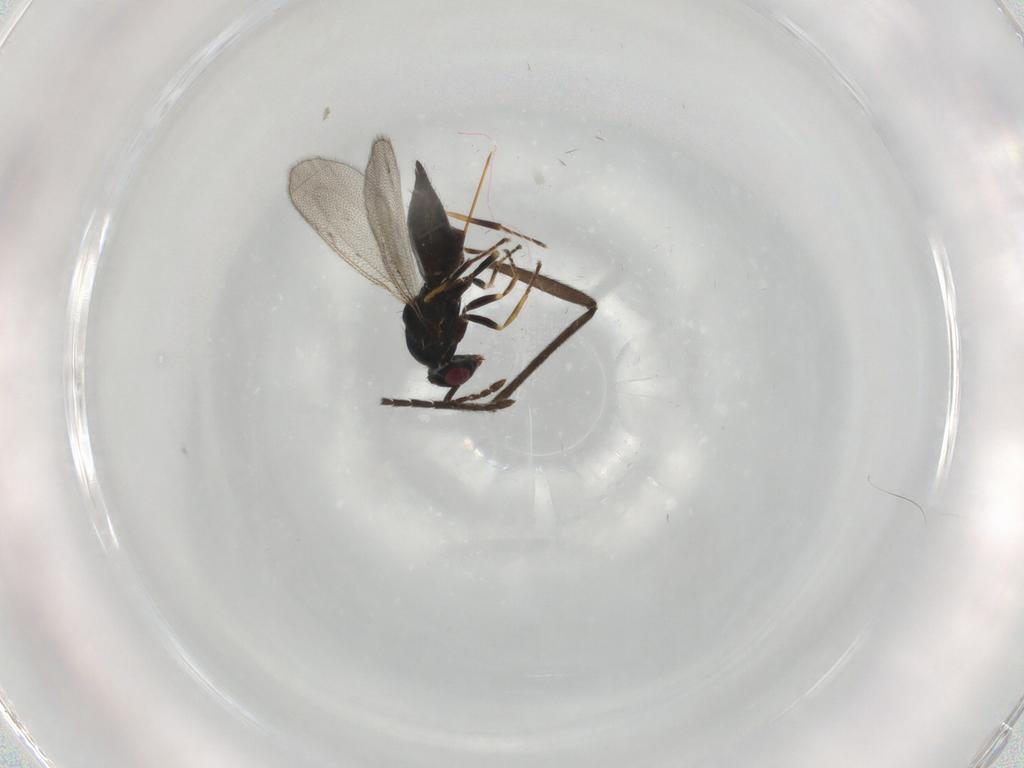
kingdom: Animalia
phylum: Arthropoda
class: Insecta
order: Hymenoptera
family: Eulophidae
